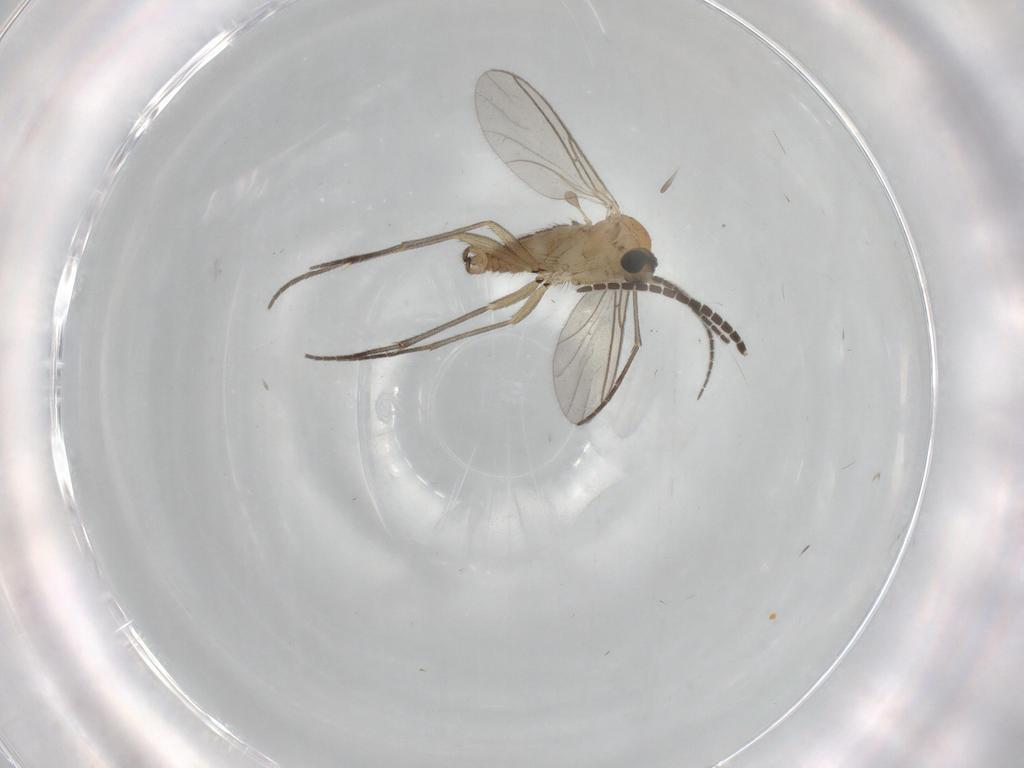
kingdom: Animalia
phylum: Arthropoda
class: Insecta
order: Diptera
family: Sciaridae
